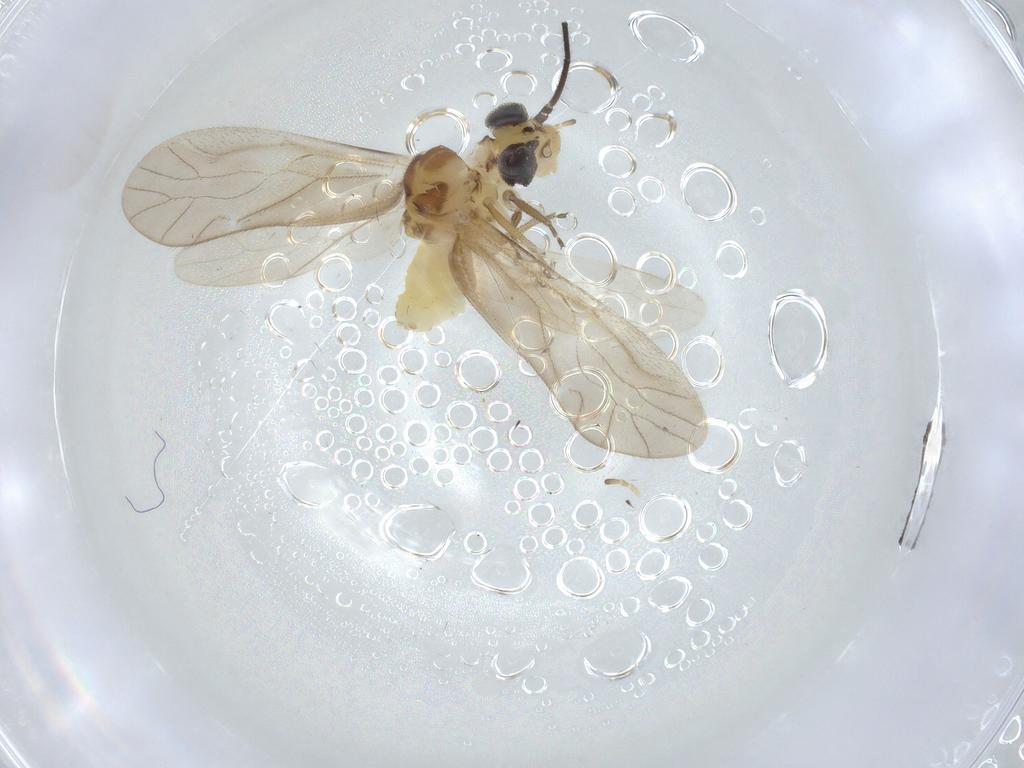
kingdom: Animalia
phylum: Arthropoda
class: Insecta
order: Psocodea
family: Caeciliusidae
